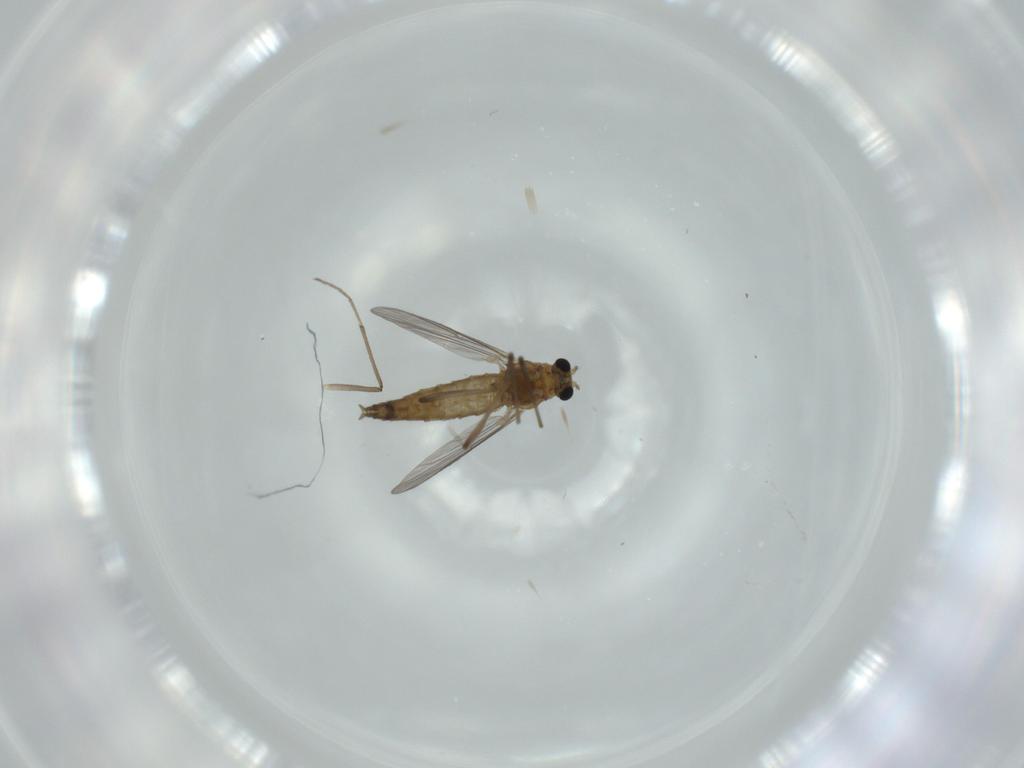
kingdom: Animalia
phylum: Arthropoda
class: Insecta
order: Diptera
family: Chironomidae
